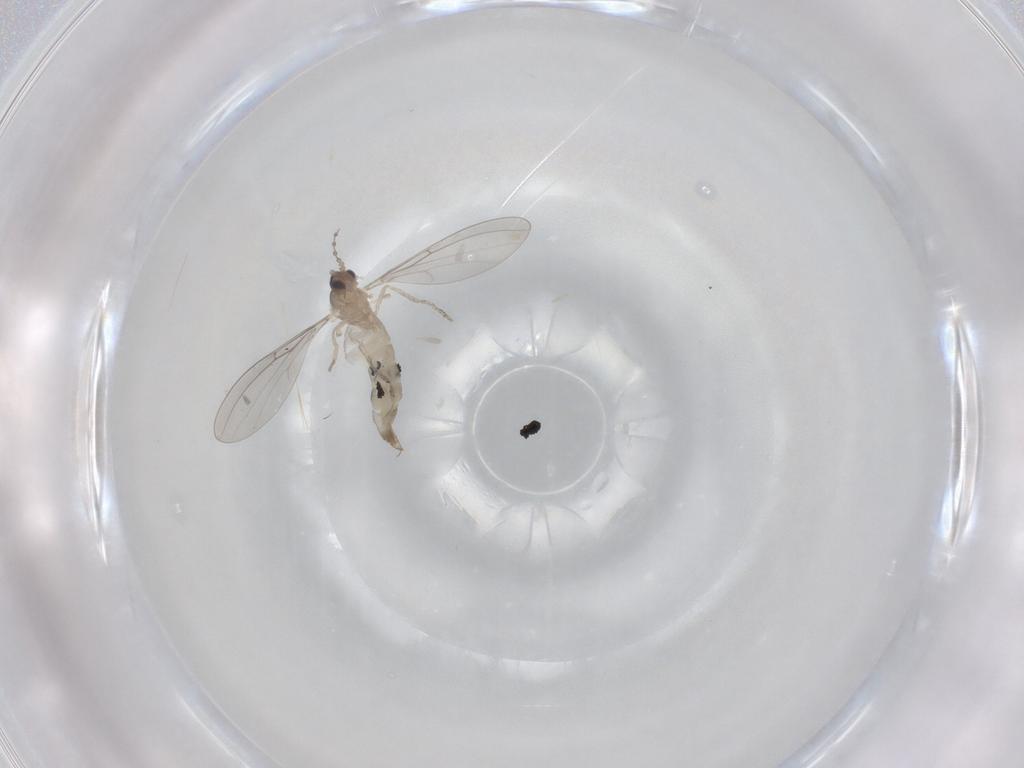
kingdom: Animalia
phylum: Arthropoda
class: Insecta
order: Diptera
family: Cecidomyiidae
